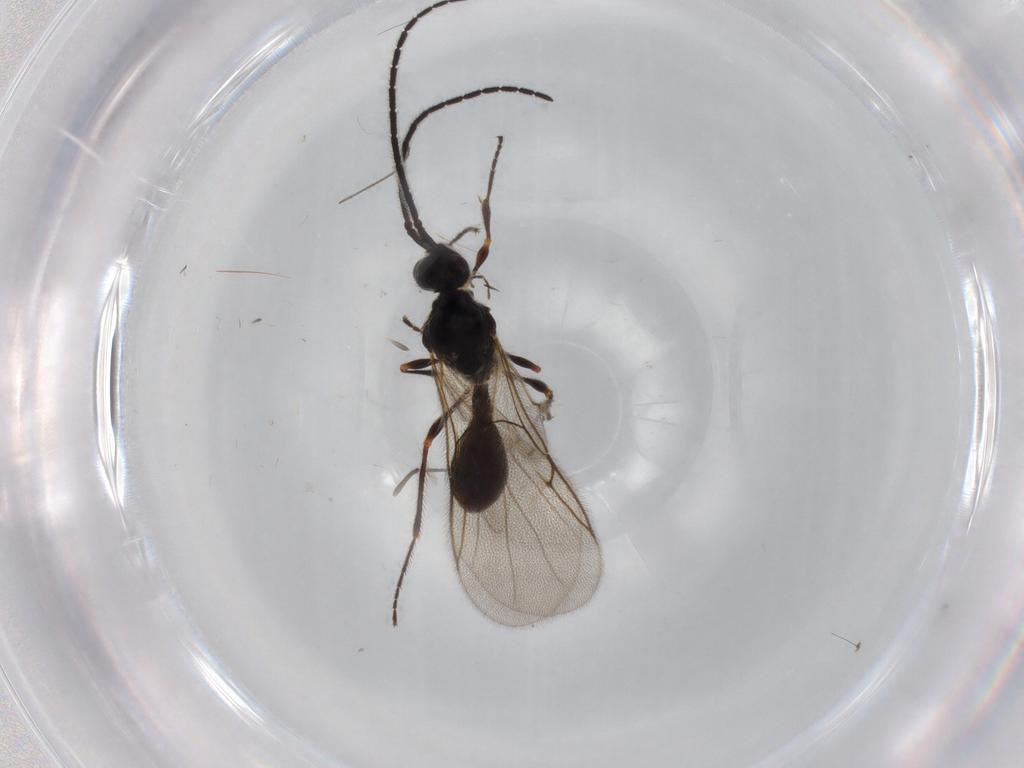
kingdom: Animalia
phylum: Arthropoda
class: Insecta
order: Hymenoptera
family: Diapriidae
